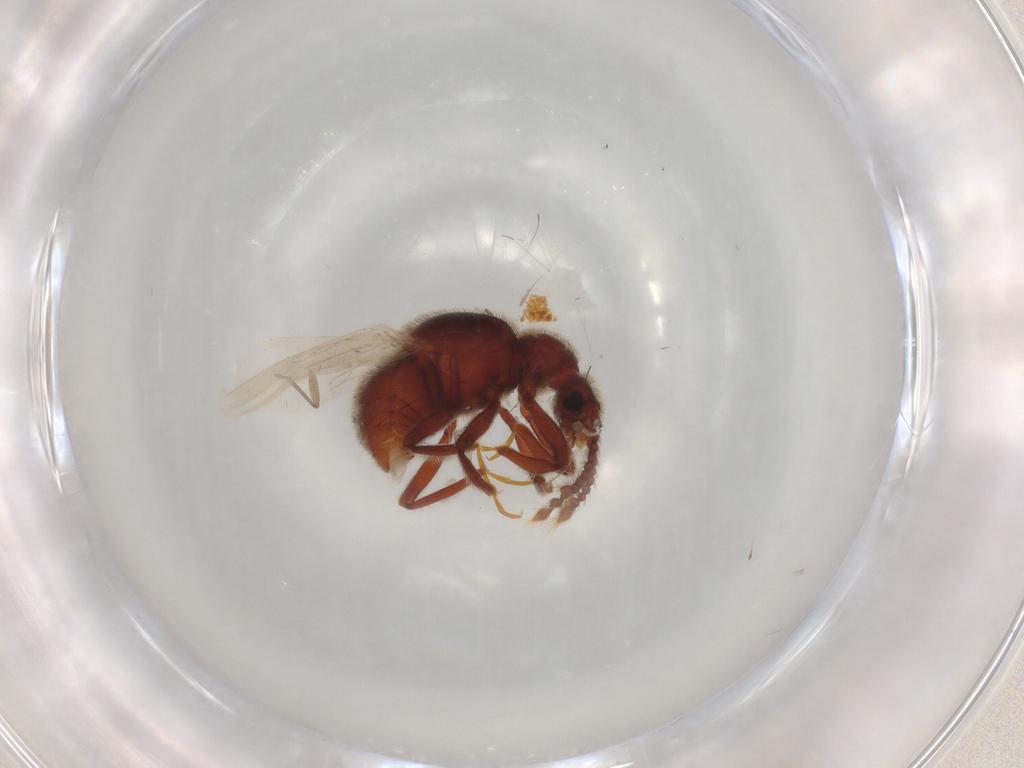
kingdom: Animalia
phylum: Arthropoda
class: Insecta
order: Coleoptera
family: Staphylinidae
